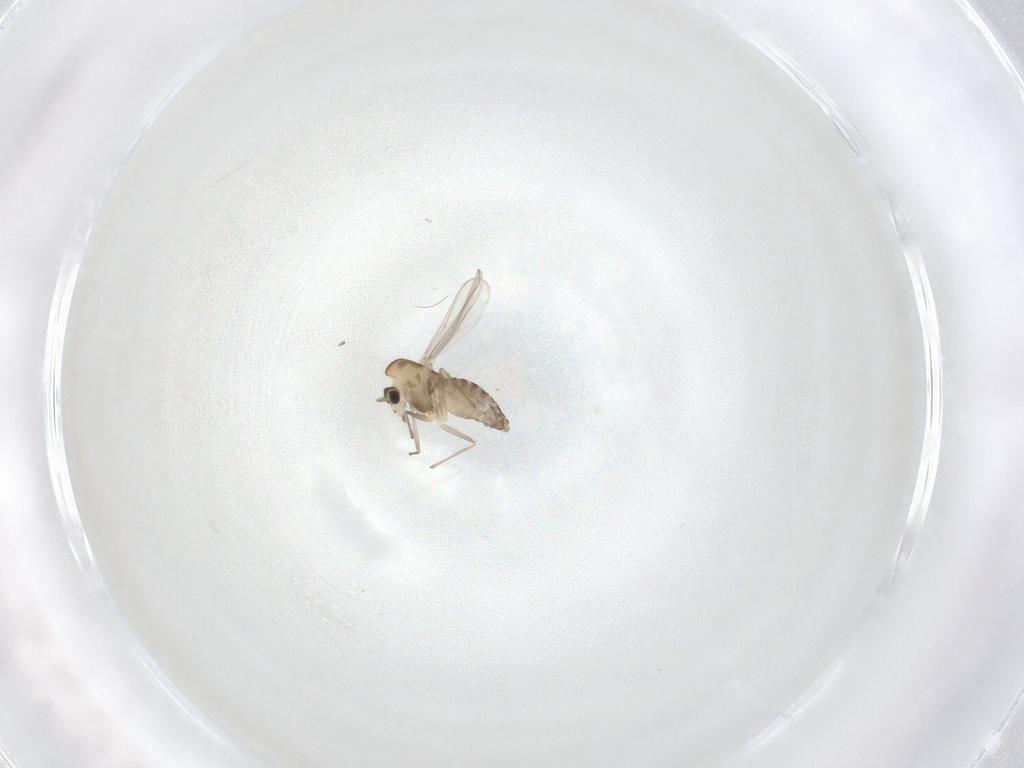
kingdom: Animalia
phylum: Arthropoda
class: Insecta
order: Diptera
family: Chironomidae
